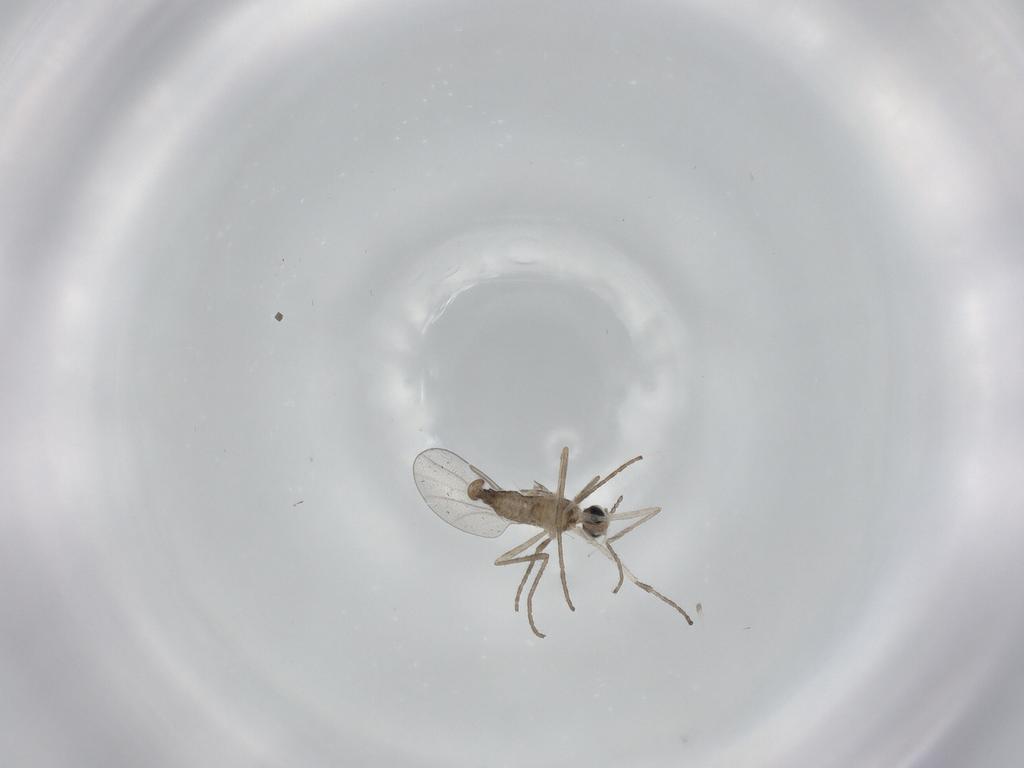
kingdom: Animalia
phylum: Arthropoda
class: Insecta
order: Diptera
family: Cecidomyiidae
